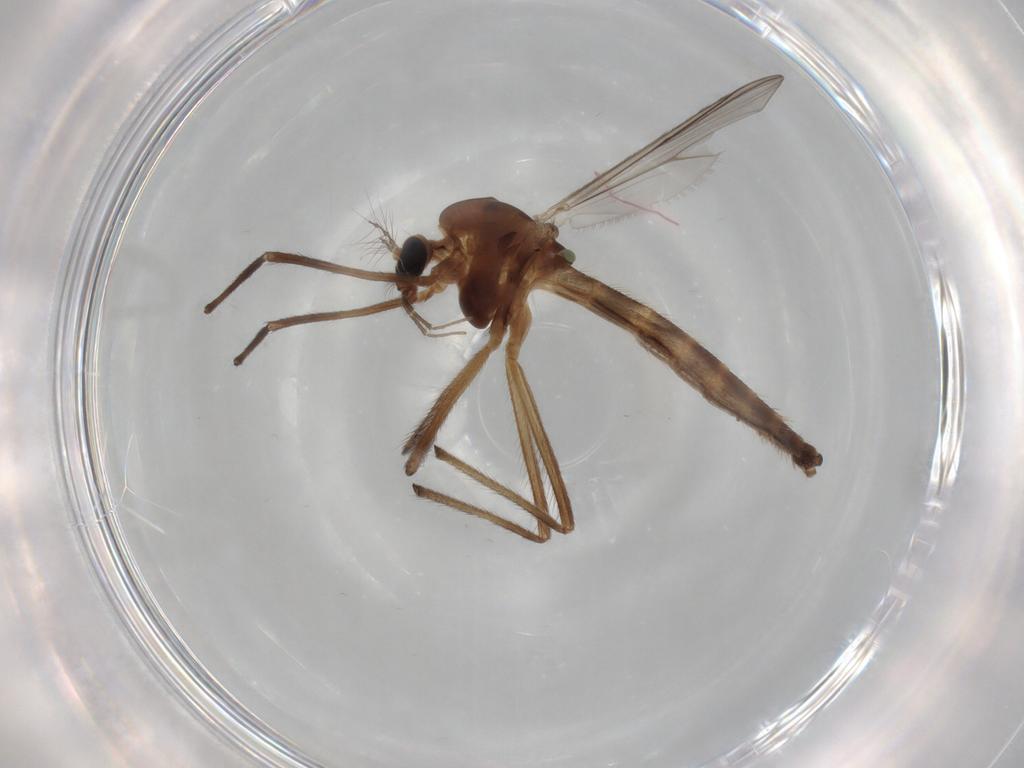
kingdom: Animalia
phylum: Arthropoda
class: Insecta
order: Diptera
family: Chironomidae
